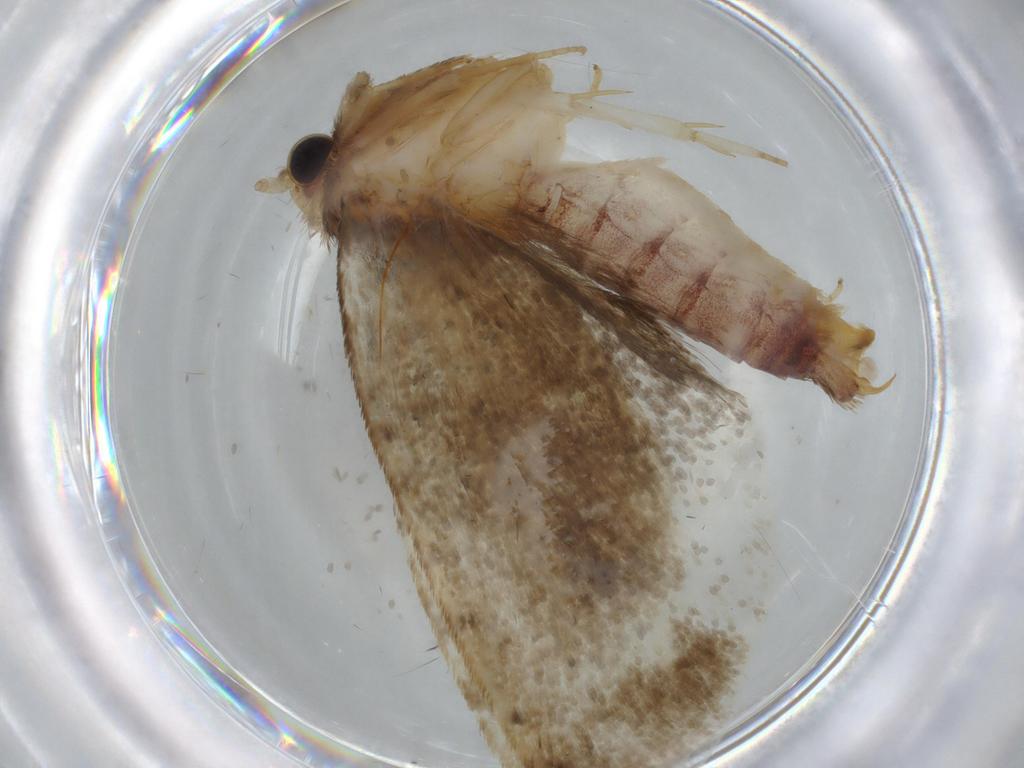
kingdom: Animalia
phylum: Arthropoda
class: Insecta
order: Lepidoptera
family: Tineidae
